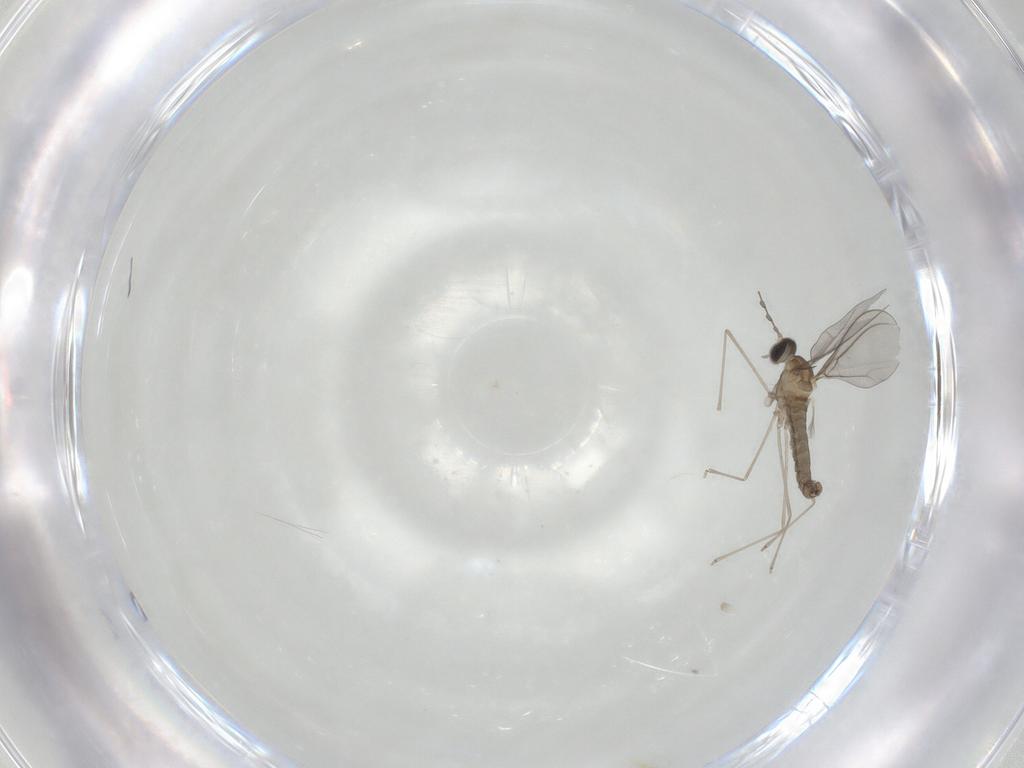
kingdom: Animalia
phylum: Arthropoda
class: Insecta
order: Diptera
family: Cecidomyiidae
